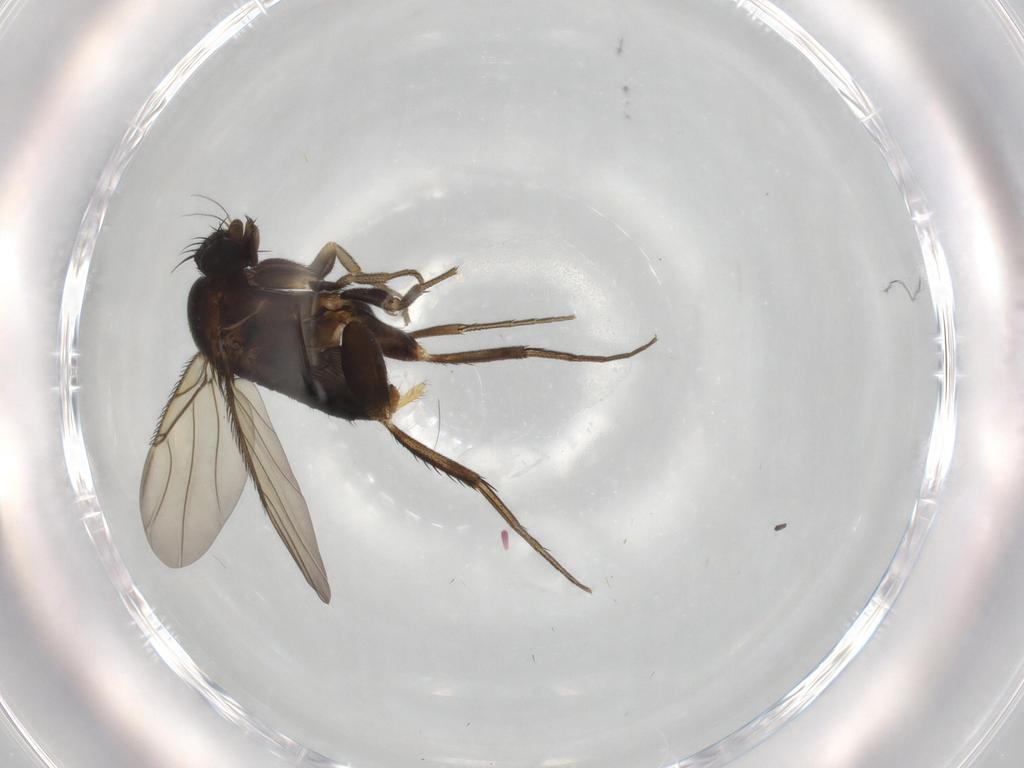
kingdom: Animalia
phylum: Arthropoda
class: Insecta
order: Diptera
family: Phoridae
